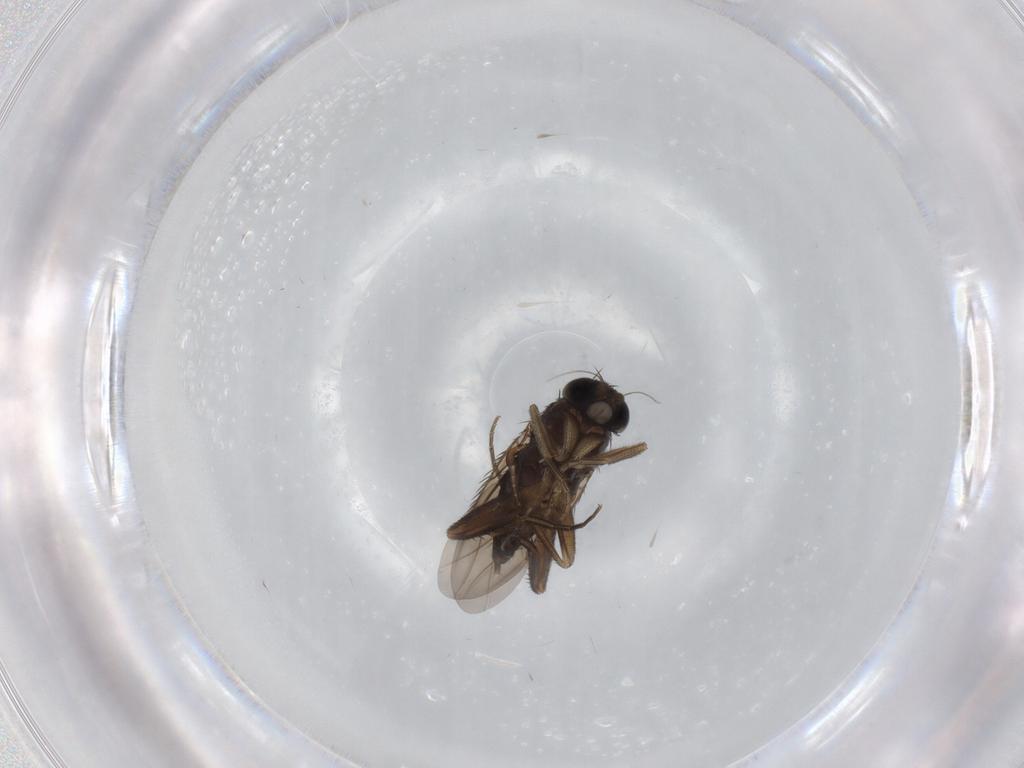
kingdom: Animalia
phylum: Arthropoda
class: Insecta
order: Diptera
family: Phoridae
